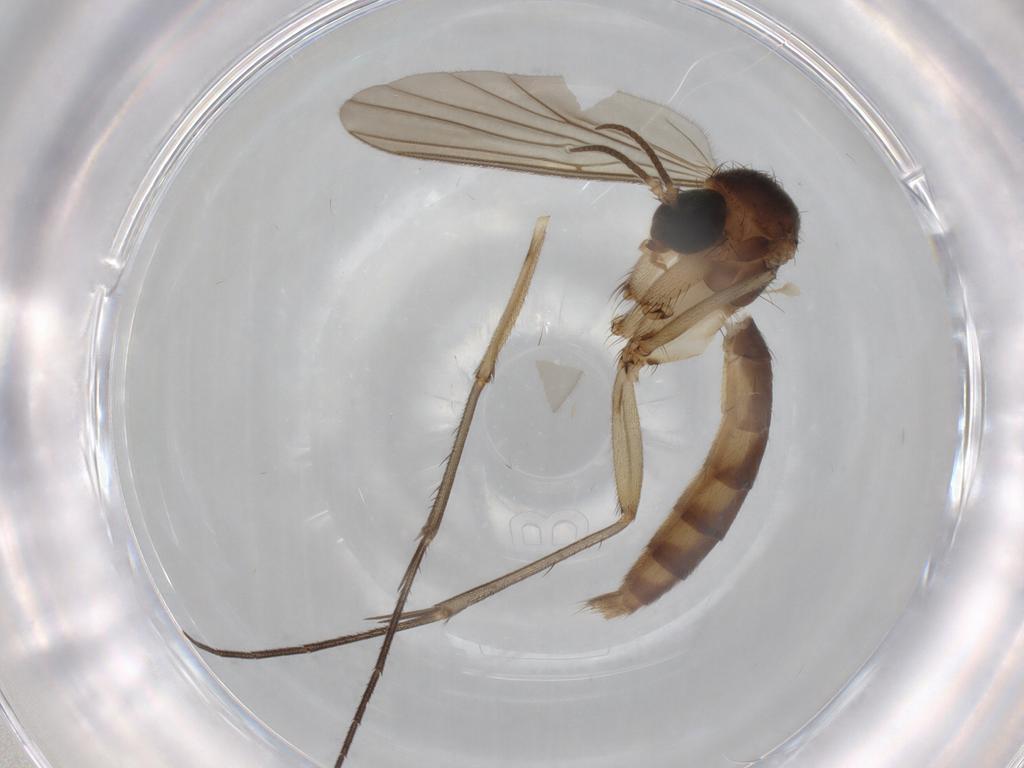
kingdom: Animalia
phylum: Arthropoda
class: Insecta
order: Diptera
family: Mycetophilidae
